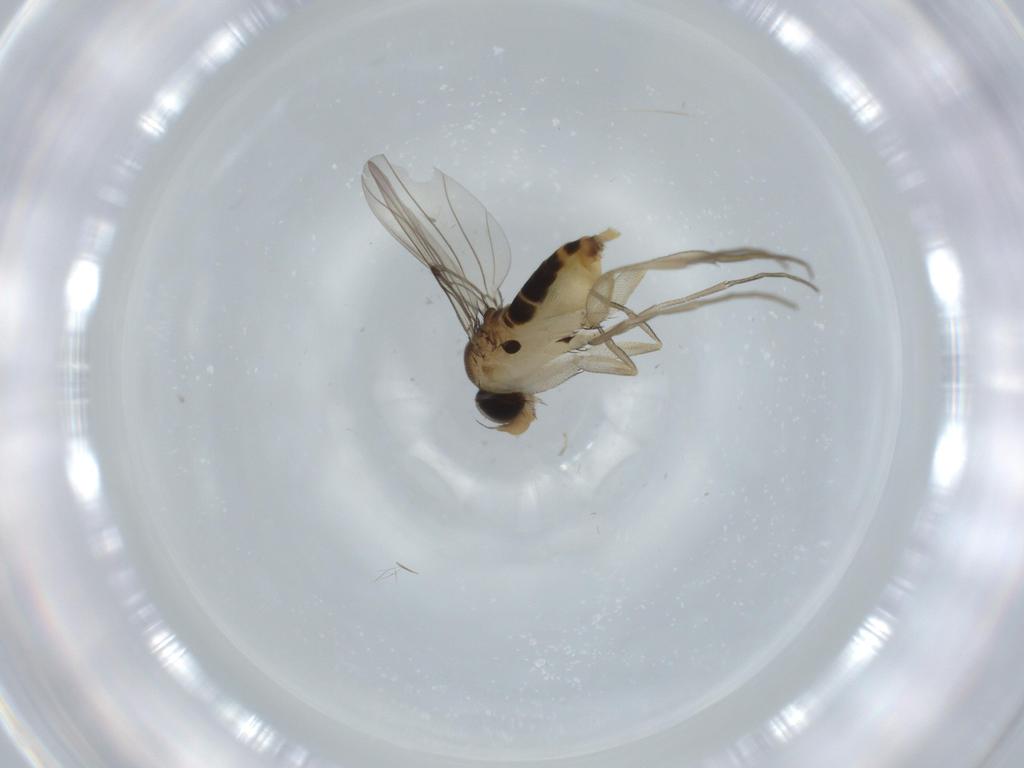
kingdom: Animalia
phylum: Arthropoda
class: Insecta
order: Diptera
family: Phoridae
